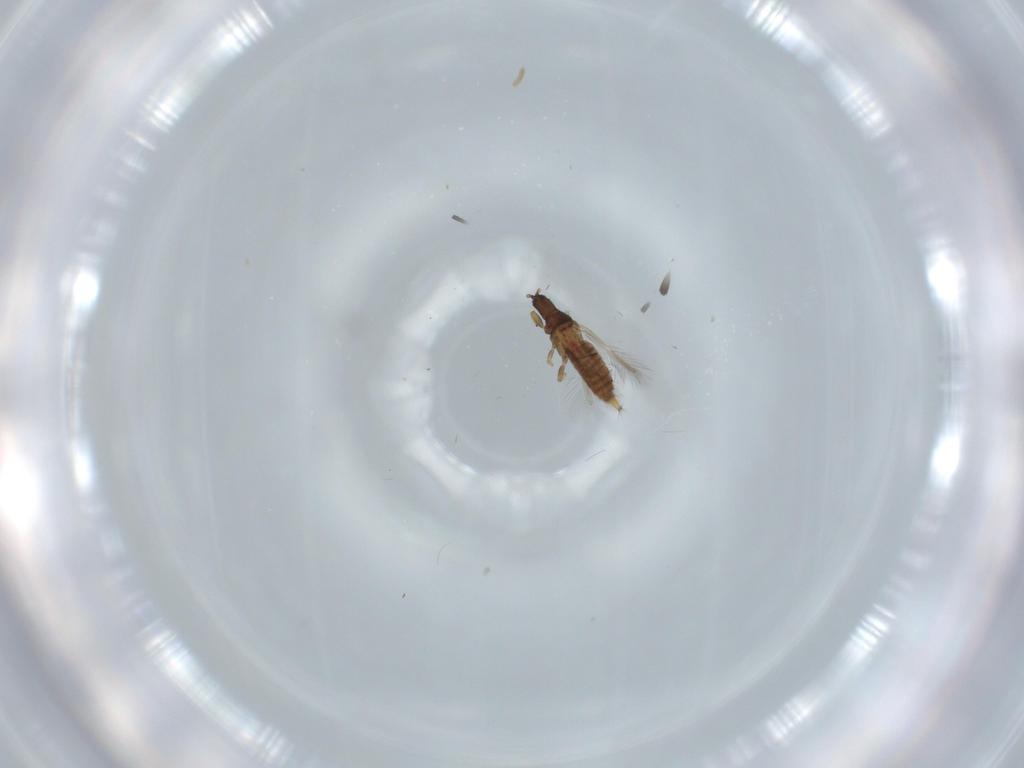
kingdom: Animalia
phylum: Arthropoda
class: Insecta
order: Thysanoptera
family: Phlaeothripidae
